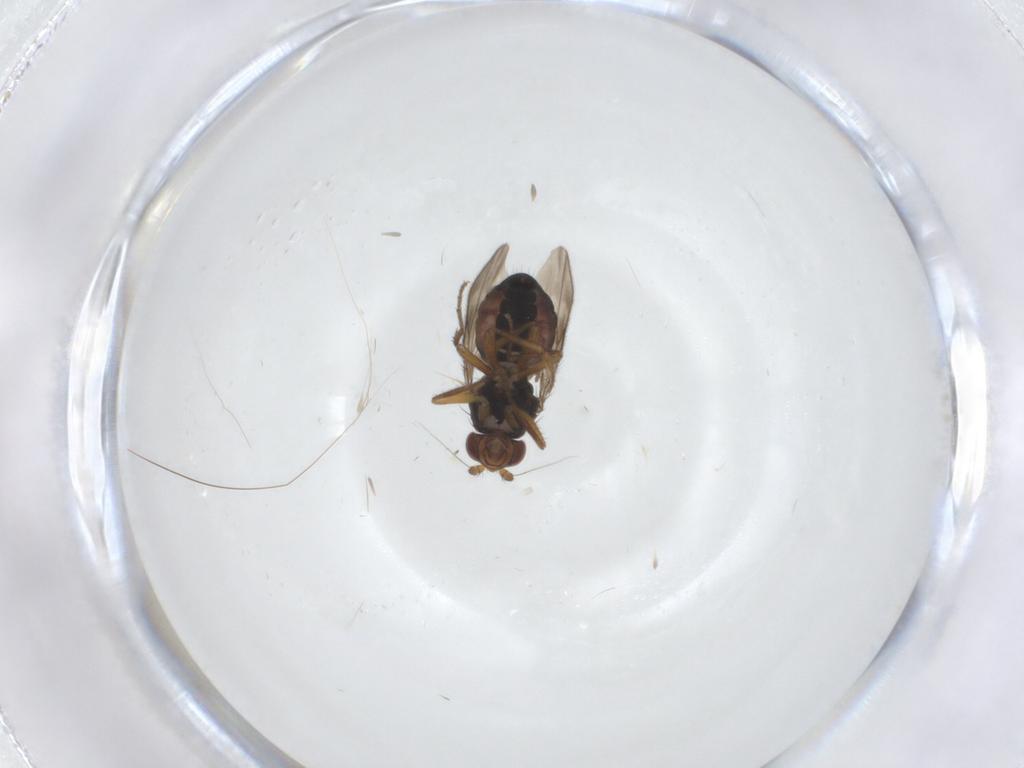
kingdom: Animalia
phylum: Arthropoda
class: Insecta
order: Diptera
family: Sphaeroceridae
